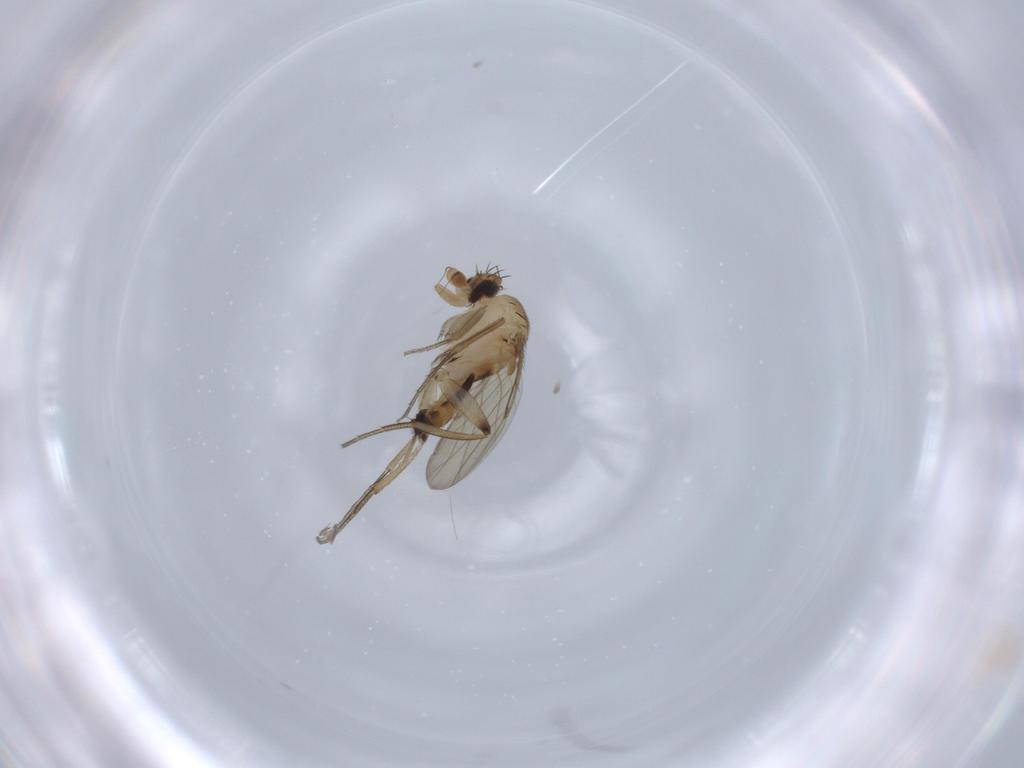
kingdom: Animalia
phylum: Arthropoda
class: Insecta
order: Diptera
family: Phoridae
